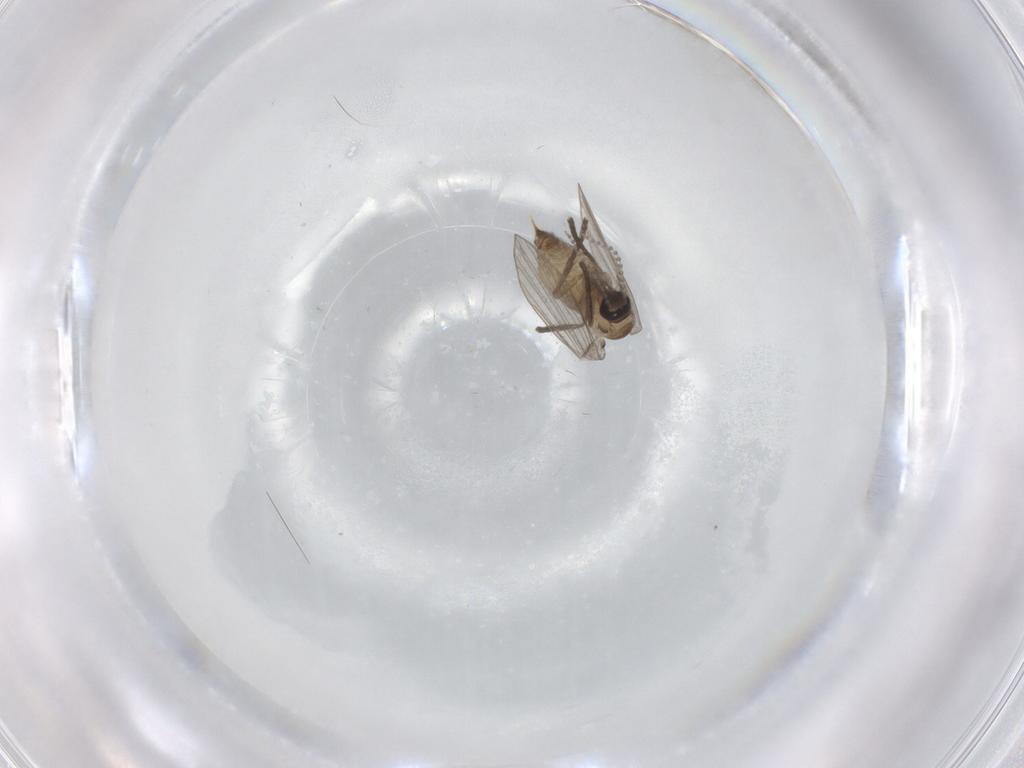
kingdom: Animalia
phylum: Arthropoda
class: Insecta
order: Diptera
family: Psychodidae
